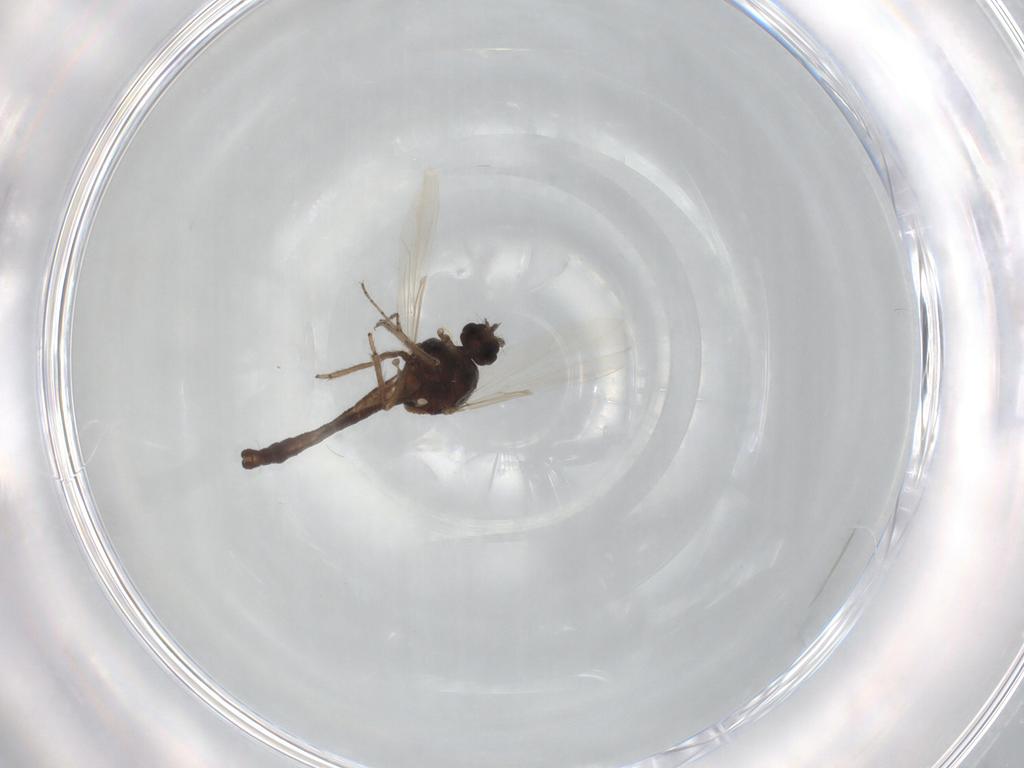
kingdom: Animalia
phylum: Arthropoda
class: Insecta
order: Diptera
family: Ceratopogonidae
